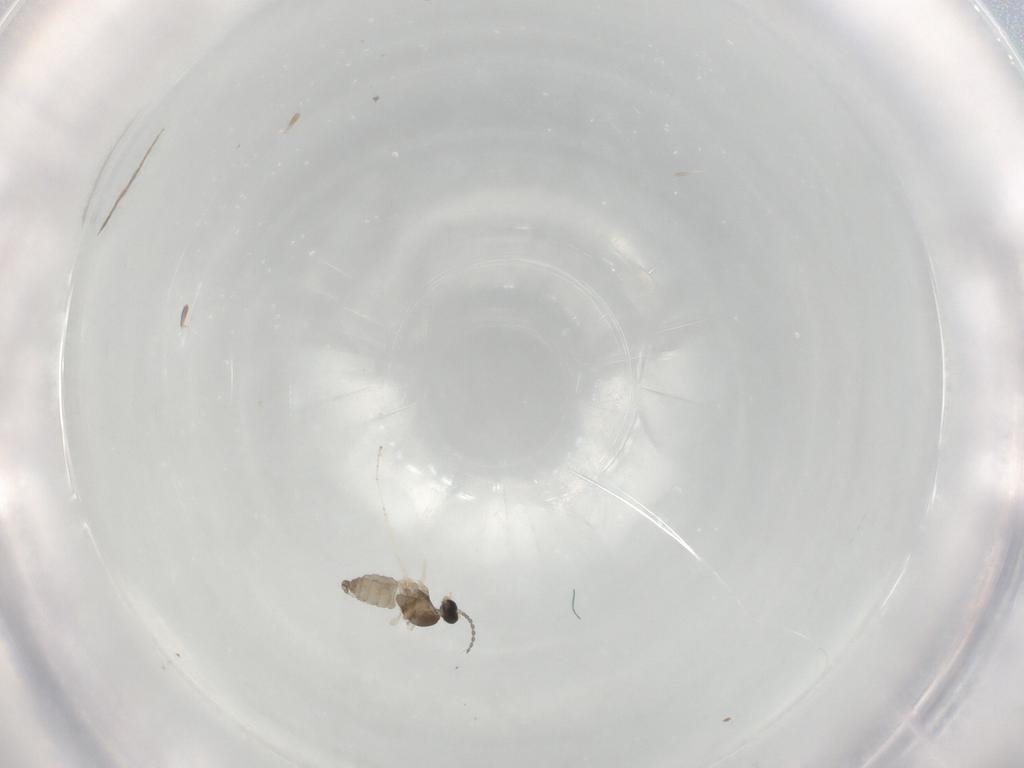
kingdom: Animalia
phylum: Arthropoda
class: Insecta
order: Diptera
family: Cecidomyiidae
